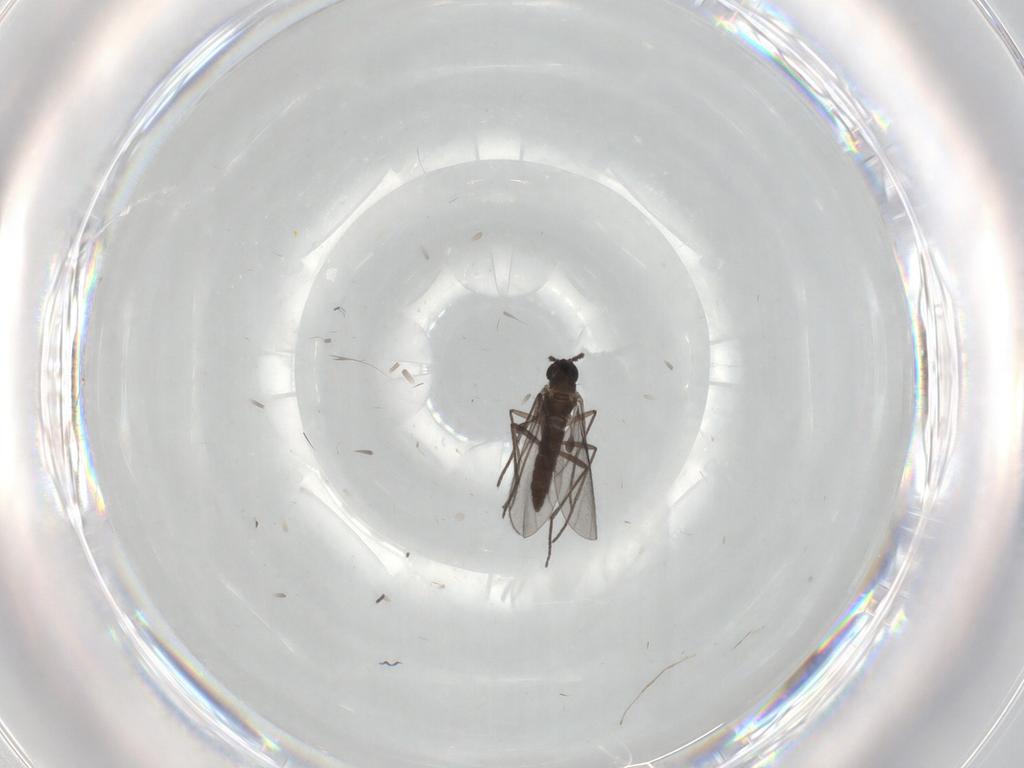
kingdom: Animalia
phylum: Arthropoda
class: Insecta
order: Diptera
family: Cecidomyiidae
